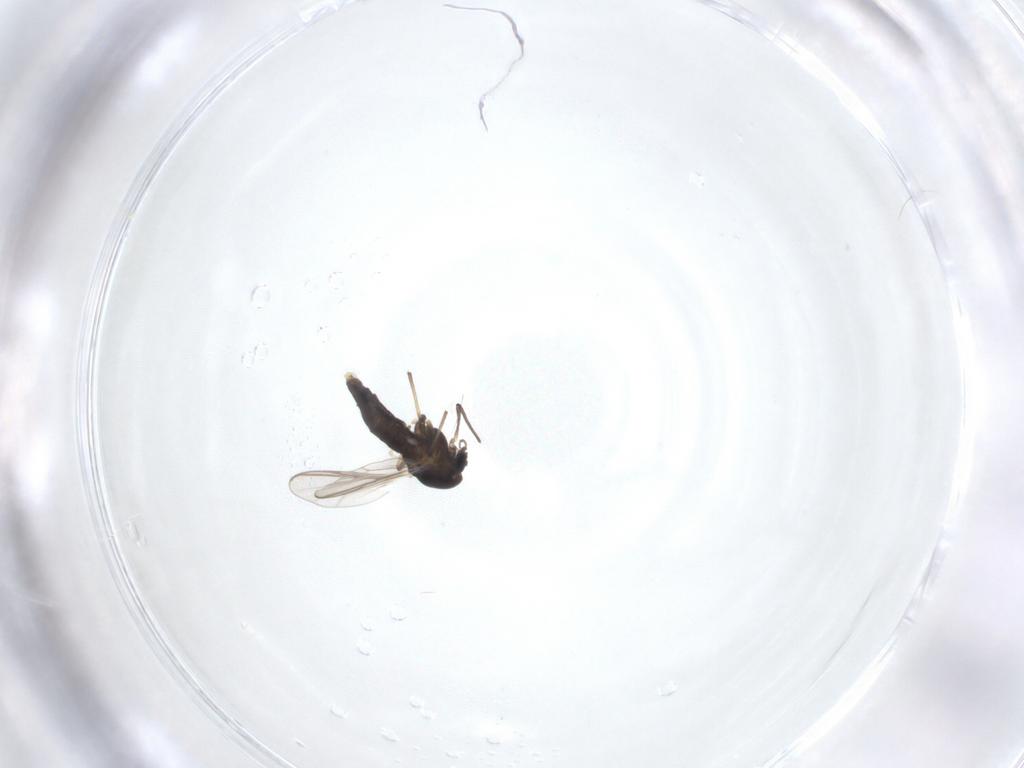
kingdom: Animalia
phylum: Arthropoda
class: Insecta
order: Diptera
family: Chironomidae
